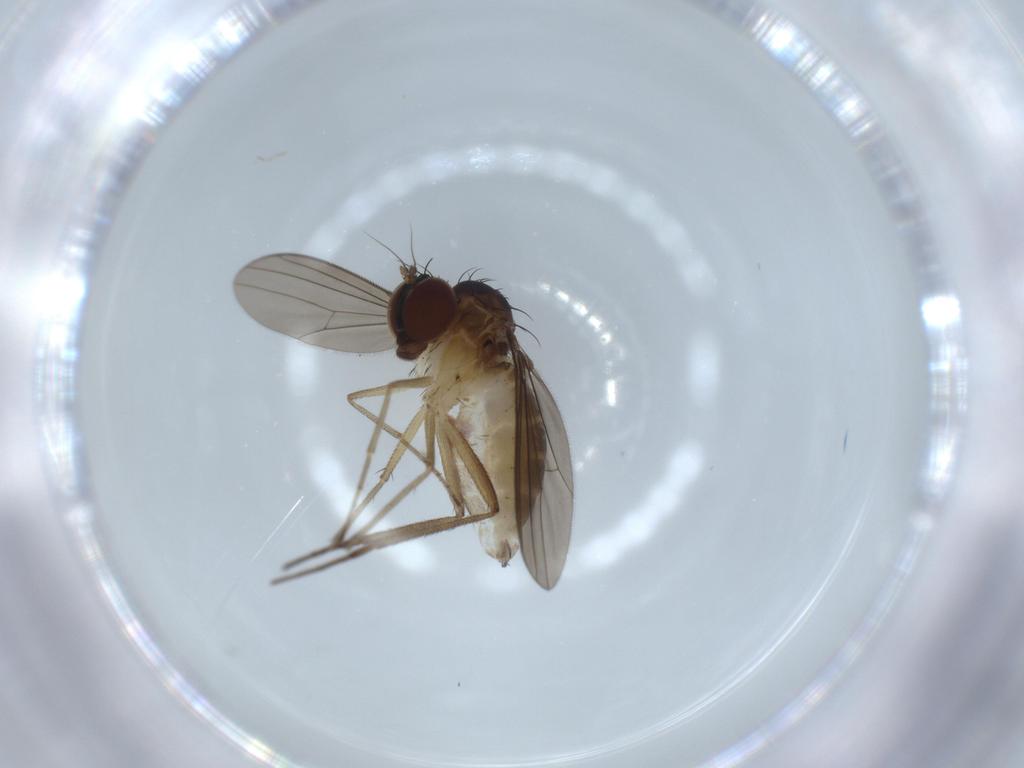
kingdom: Animalia
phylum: Arthropoda
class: Insecta
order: Diptera
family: Dolichopodidae
